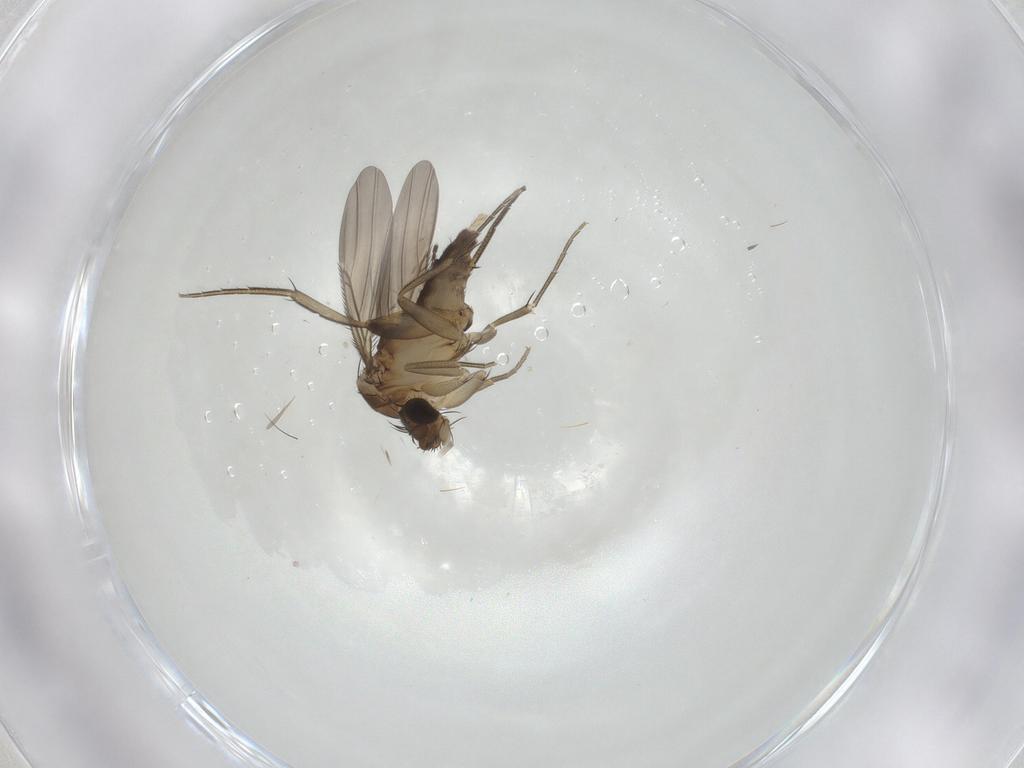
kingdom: Animalia
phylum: Arthropoda
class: Insecta
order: Diptera
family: Phoridae
